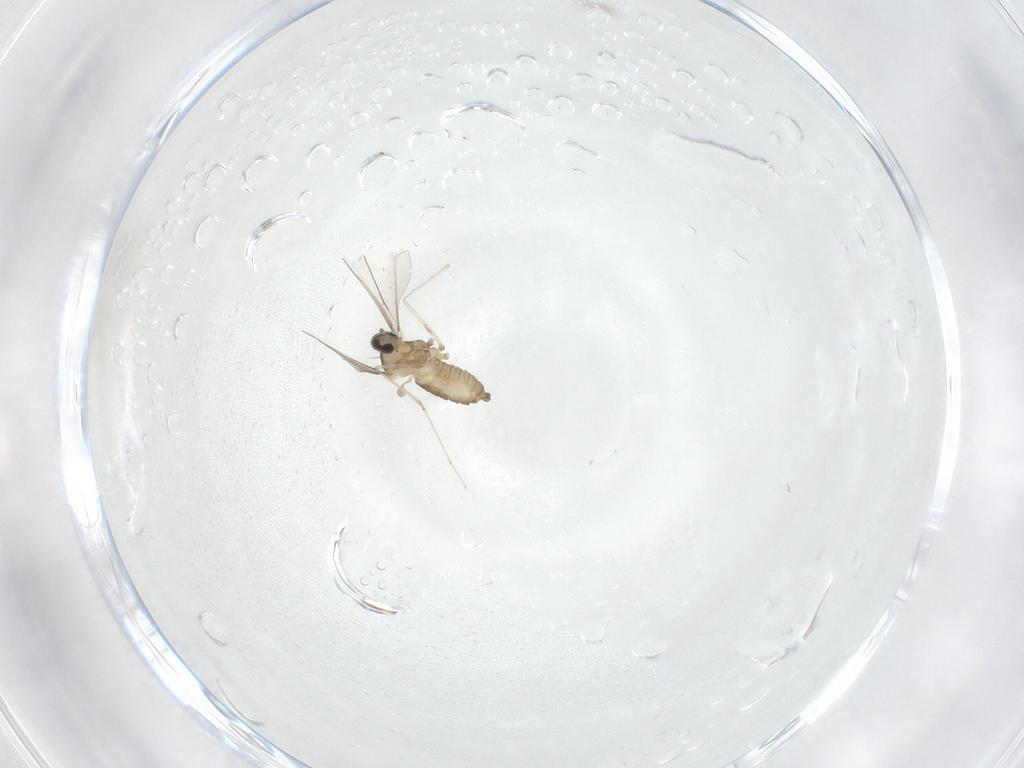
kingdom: Animalia
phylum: Arthropoda
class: Insecta
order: Diptera
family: Cecidomyiidae
